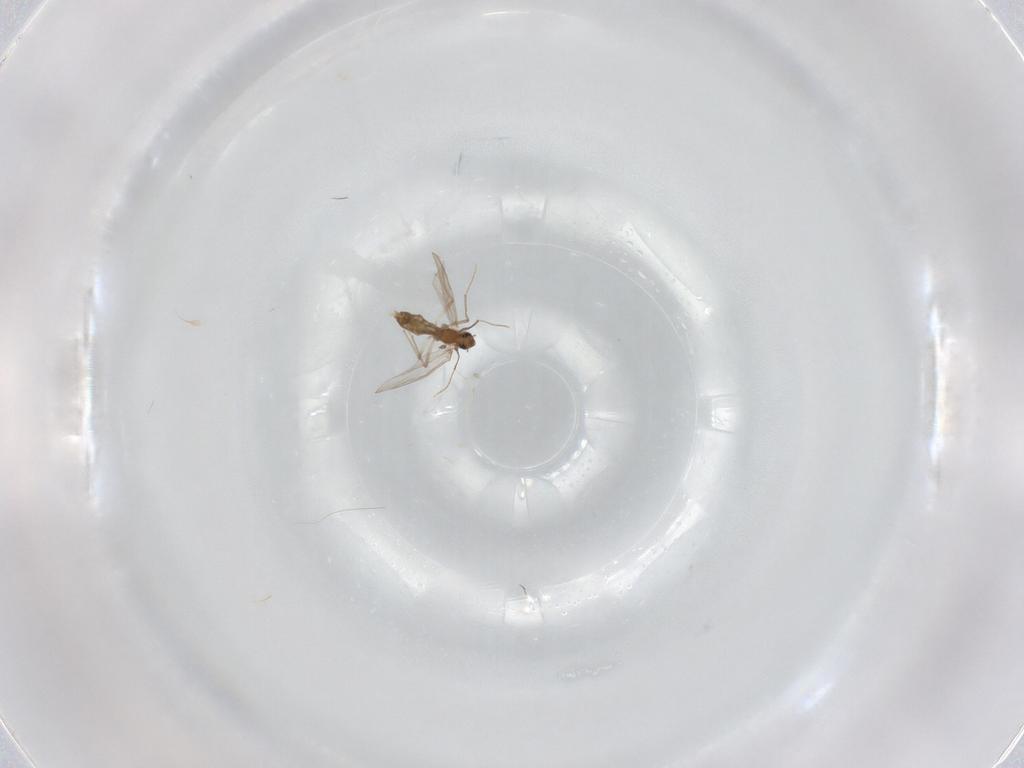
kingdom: Animalia
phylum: Arthropoda
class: Insecta
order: Diptera
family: Chironomidae
